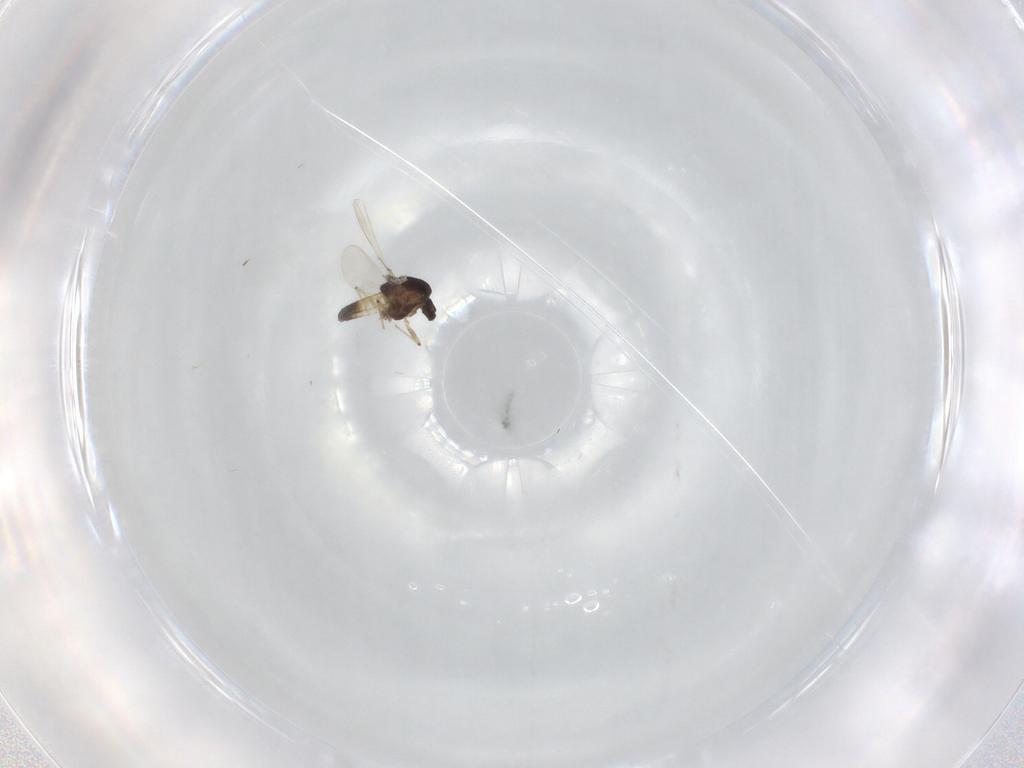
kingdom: Animalia
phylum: Arthropoda
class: Insecta
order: Diptera
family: Chironomidae
